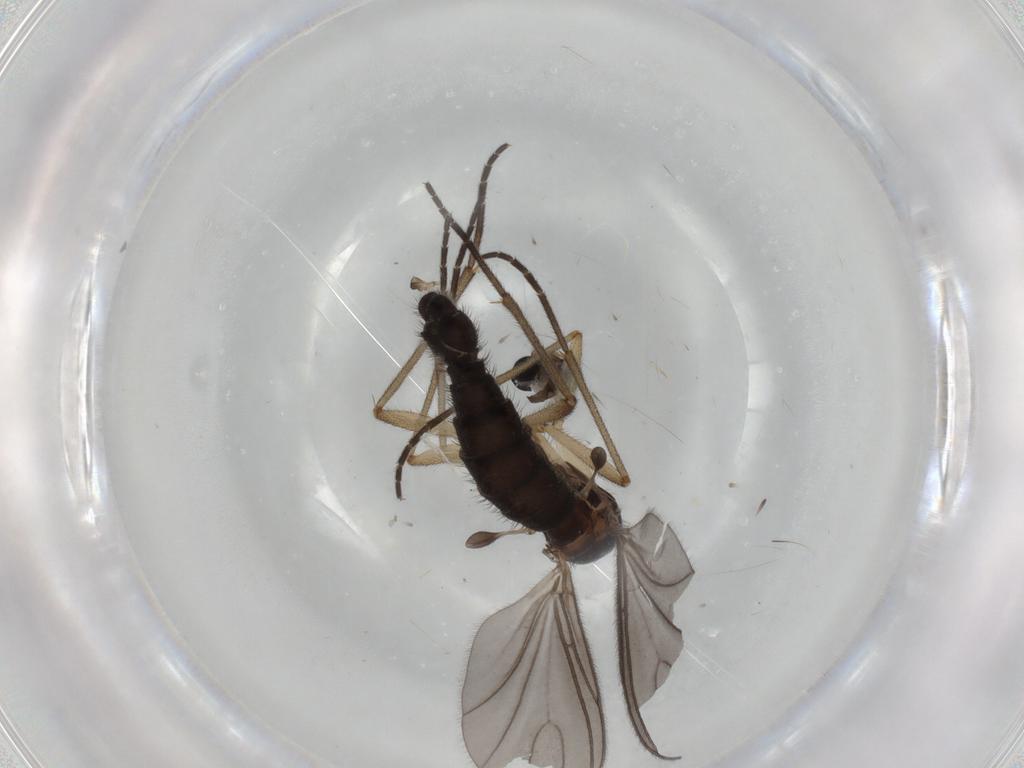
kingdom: Animalia
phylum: Arthropoda
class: Insecta
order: Diptera
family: Sciaridae
